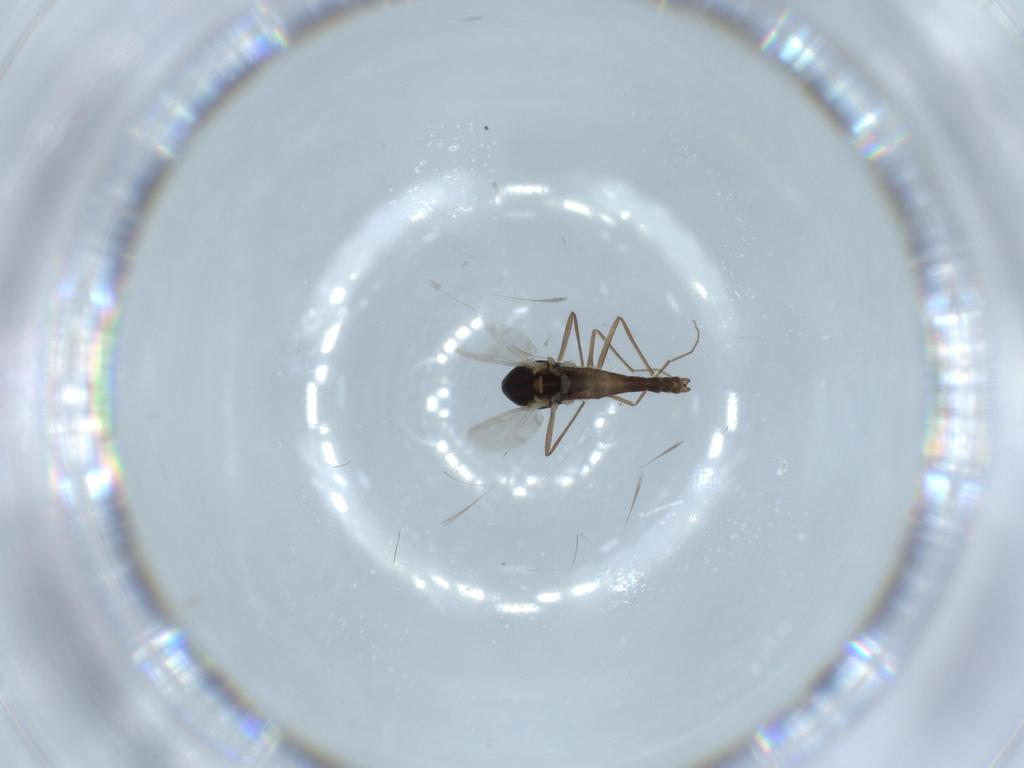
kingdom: Animalia
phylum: Arthropoda
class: Insecta
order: Diptera
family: Chironomidae
